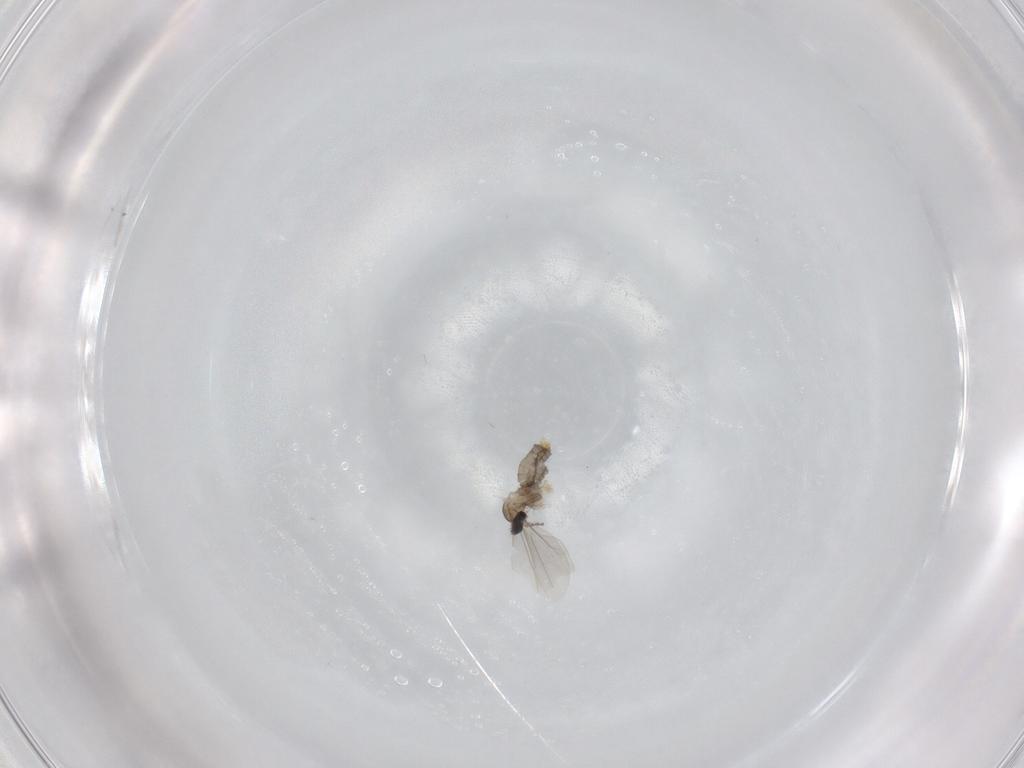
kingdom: Animalia
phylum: Arthropoda
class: Insecta
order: Diptera
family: Cecidomyiidae
